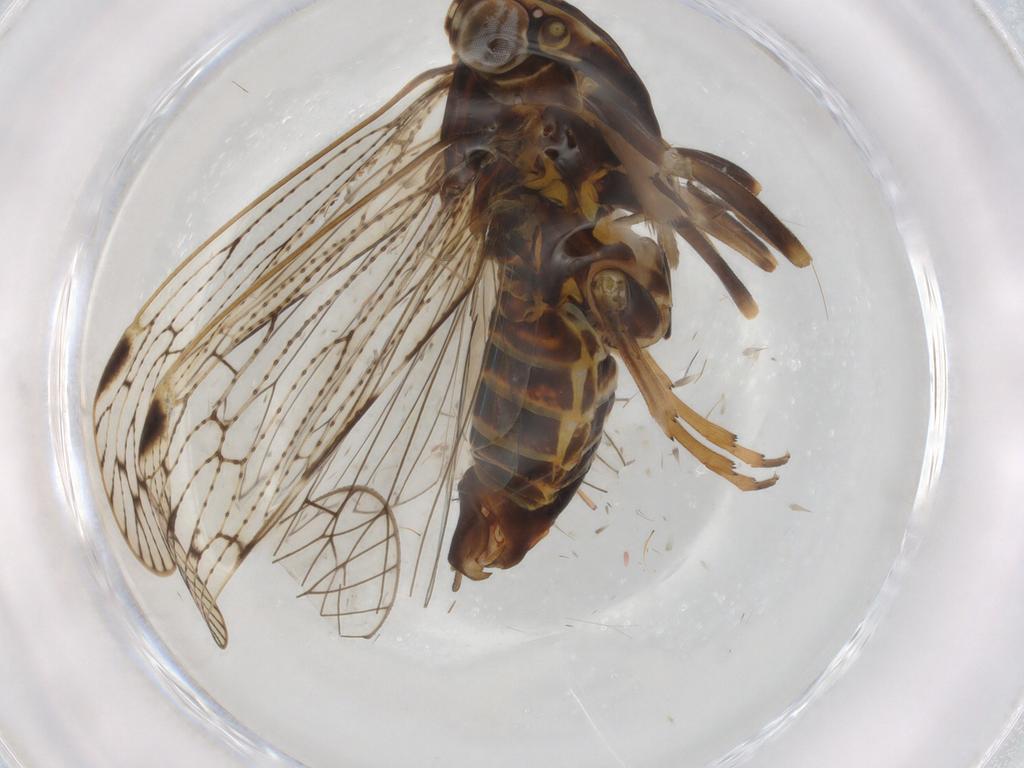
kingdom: Animalia
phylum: Arthropoda
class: Insecta
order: Hemiptera
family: Cixiidae
